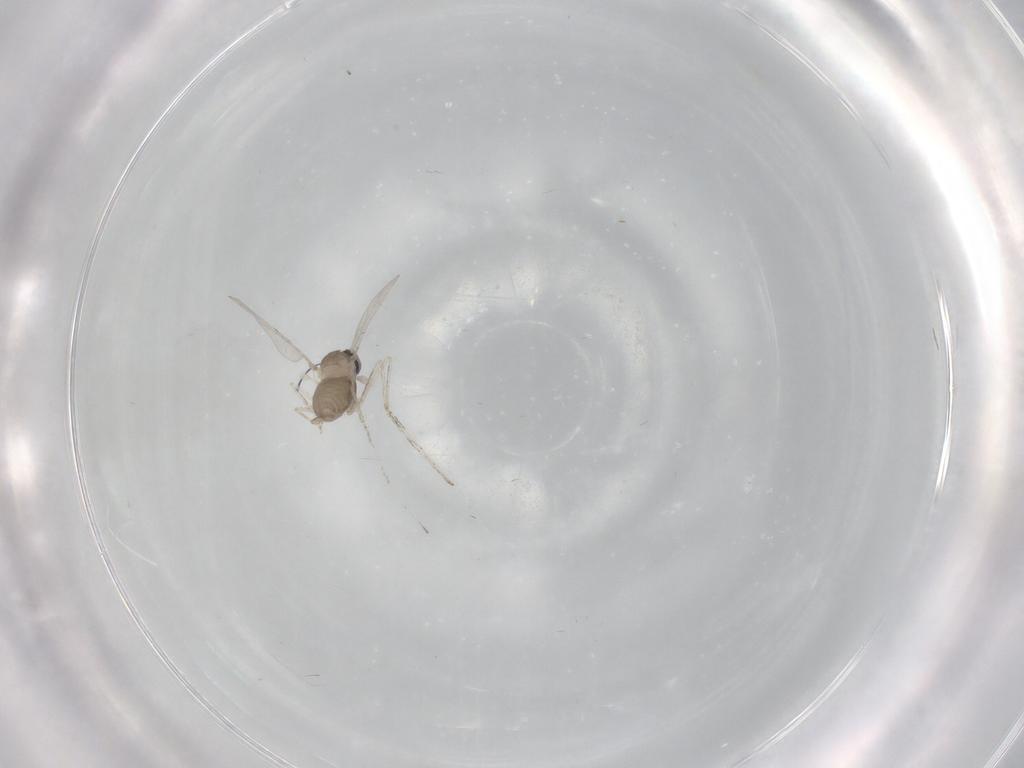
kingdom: Animalia
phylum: Arthropoda
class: Insecta
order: Diptera
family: Cecidomyiidae
